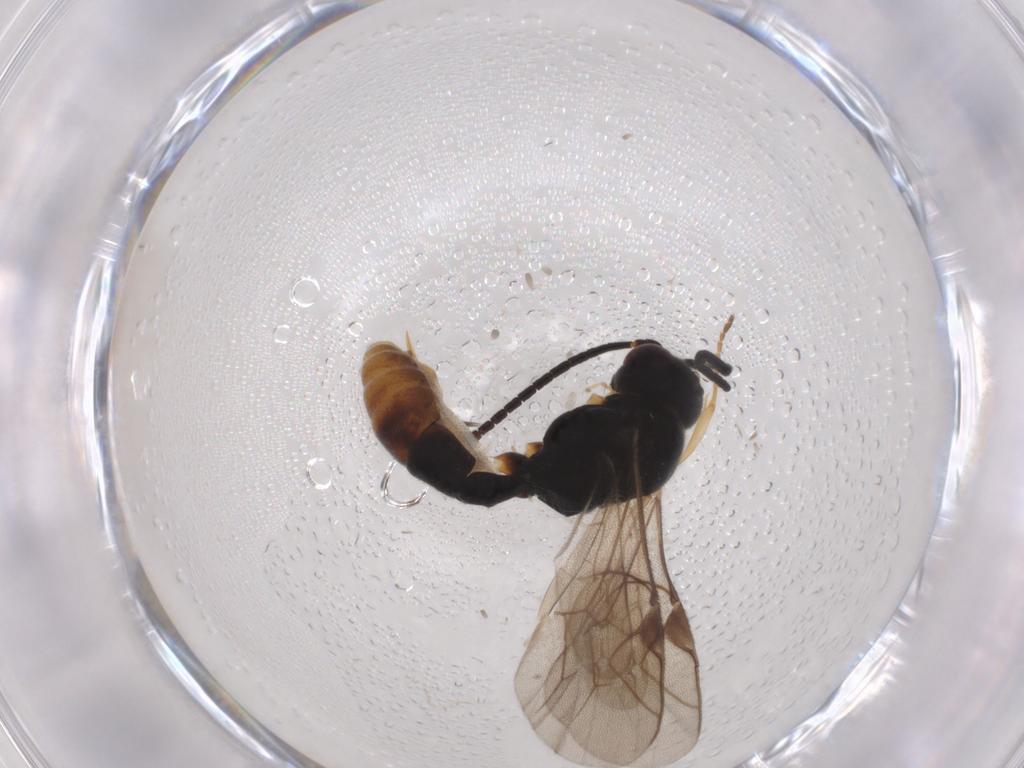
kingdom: Animalia
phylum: Arthropoda
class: Insecta
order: Hymenoptera
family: Ichneumonidae
